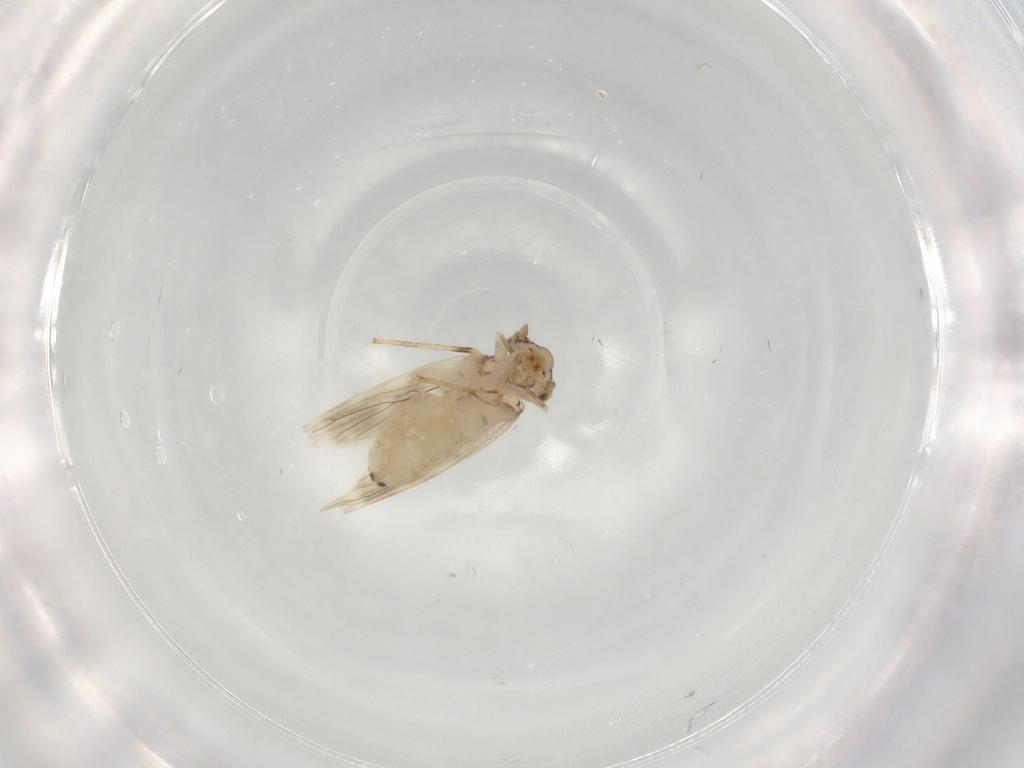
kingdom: Animalia
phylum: Arthropoda
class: Insecta
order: Psocodea
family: Lepidopsocidae
